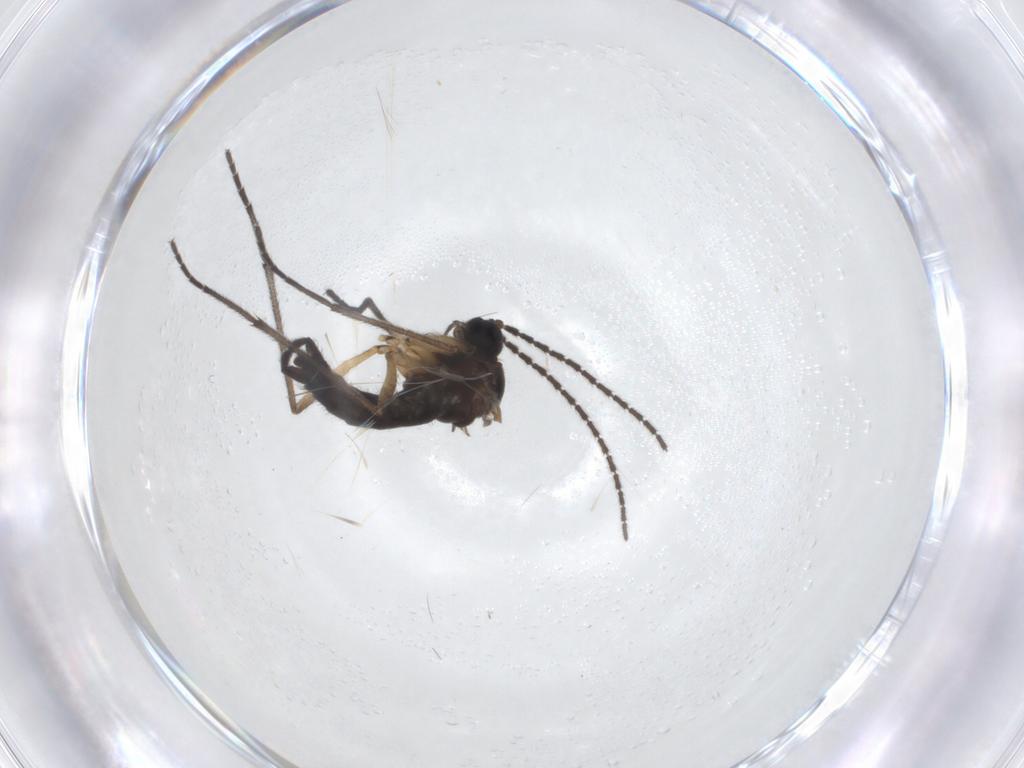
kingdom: Animalia
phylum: Arthropoda
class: Insecta
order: Diptera
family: Sciaridae
